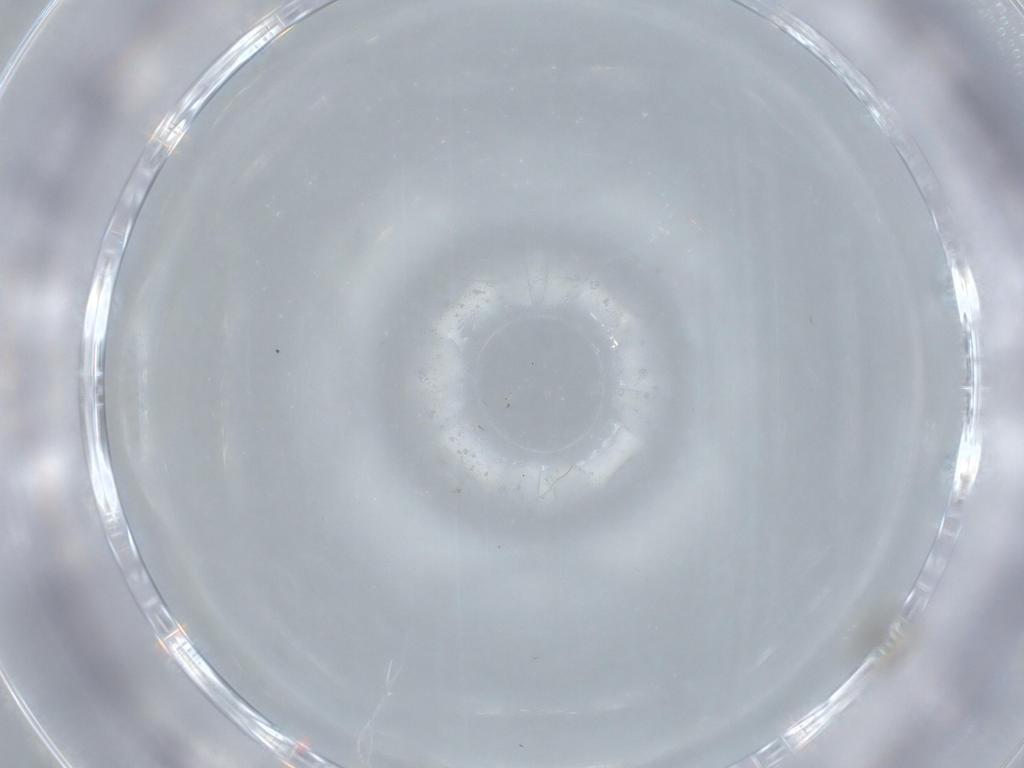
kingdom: Animalia
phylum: Arthropoda
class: Insecta
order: Diptera
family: Cecidomyiidae
